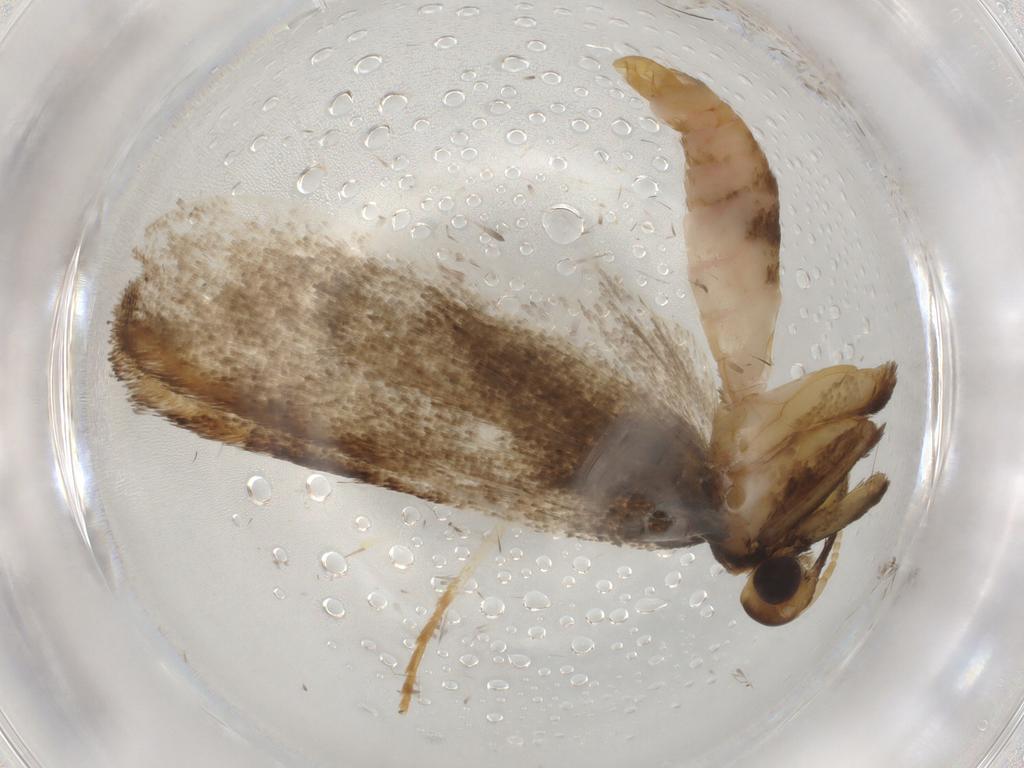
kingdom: Animalia
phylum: Arthropoda
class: Insecta
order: Lepidoptera
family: Lecithoceridae
